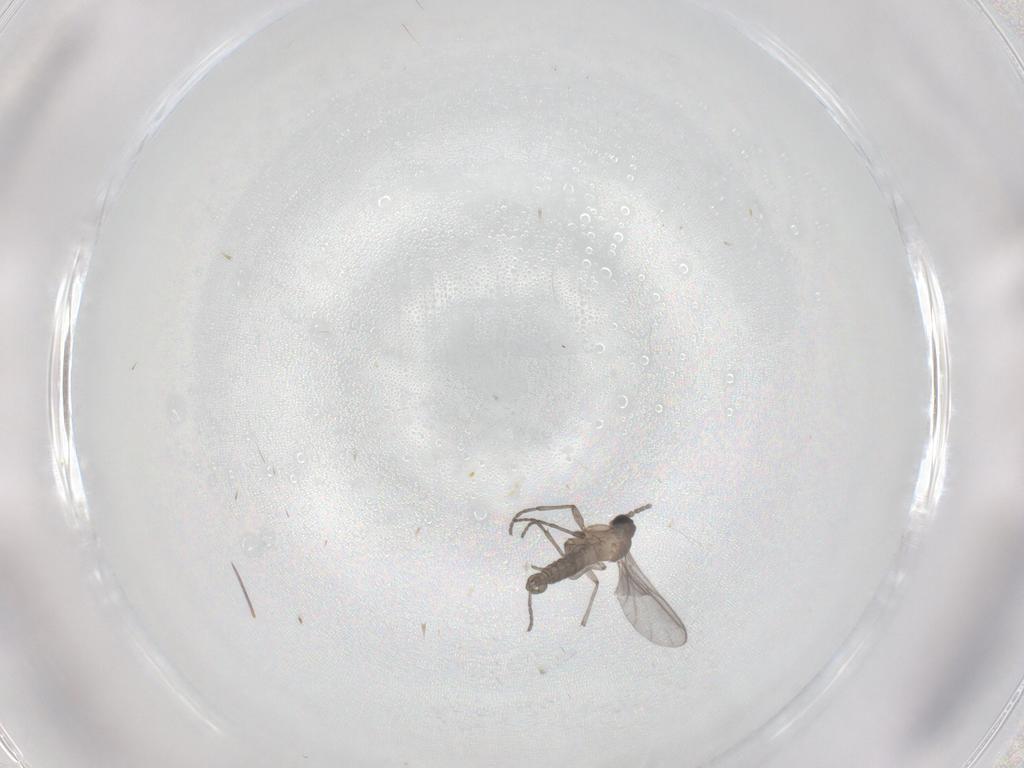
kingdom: Animalia
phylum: Arthropoda
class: Insecta
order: Diptera
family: Sciaridae
